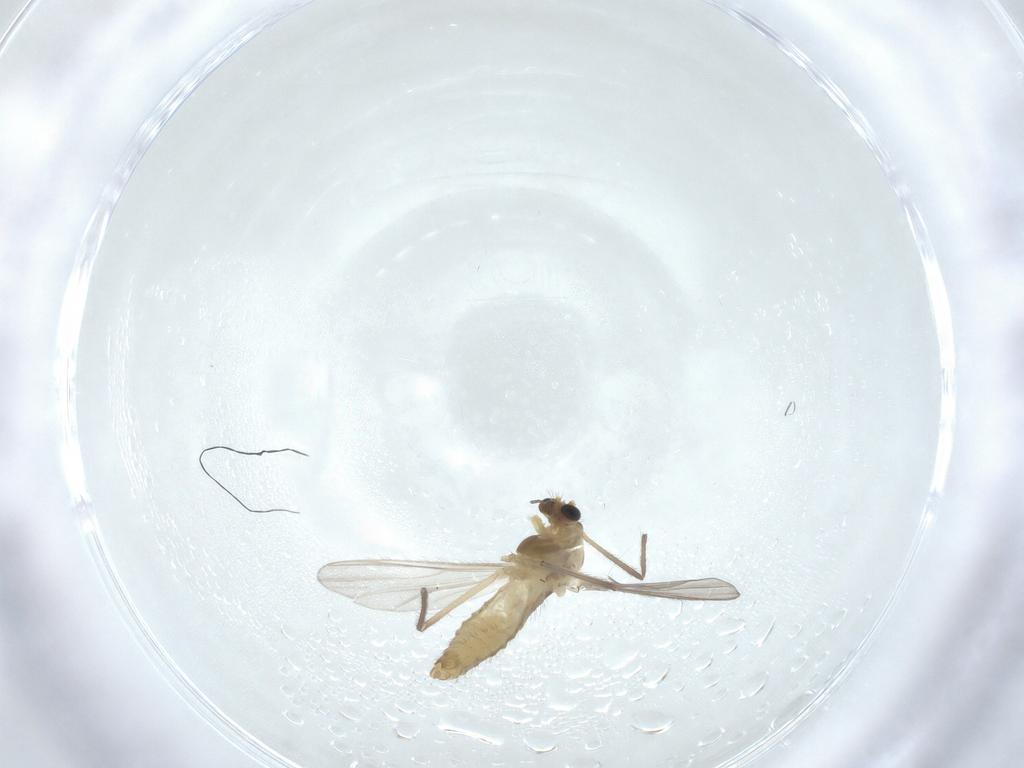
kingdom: Animalia
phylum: Arthropoda
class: Insecta
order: Diptera
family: Chironomidae
